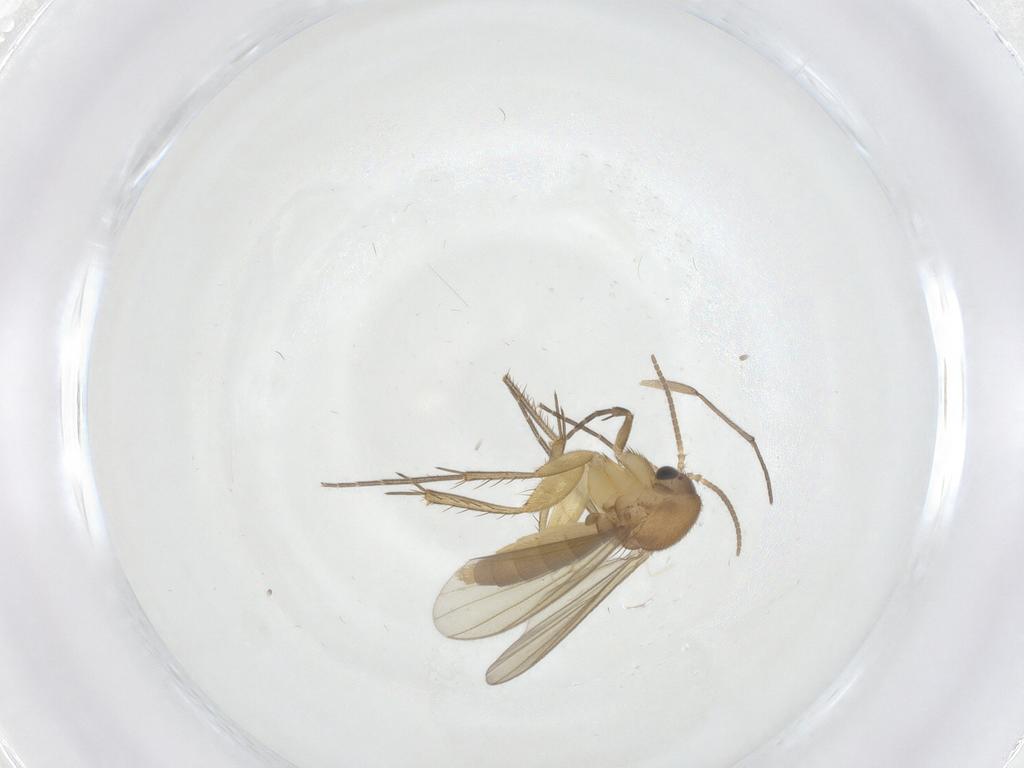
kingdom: Animalia
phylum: Arthropoda
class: Insecta
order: Diptera
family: Mycetophilidae
